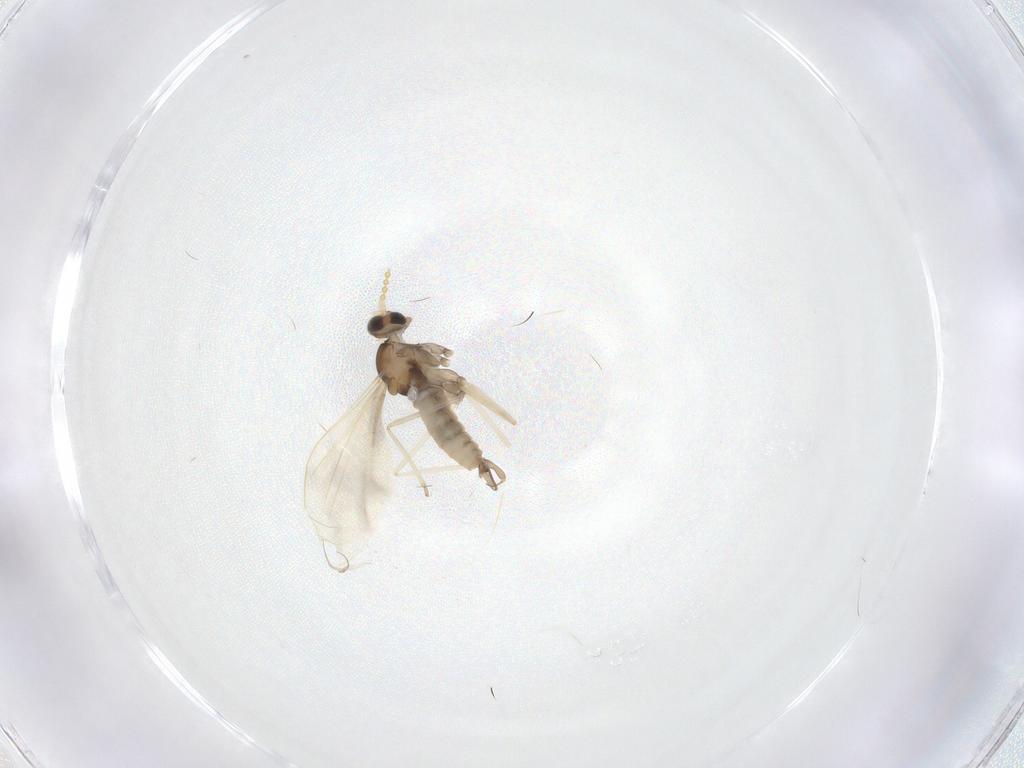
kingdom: Animalia
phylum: Arthropoda
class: Insecta
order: Diptera
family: Cecidomyiidae
